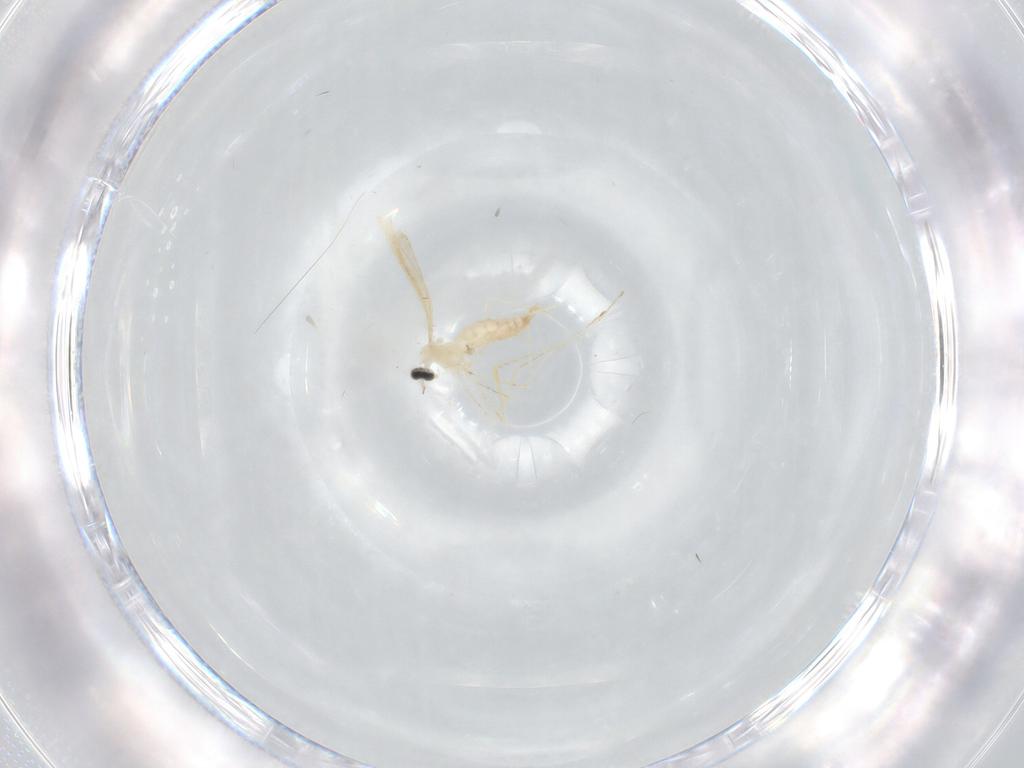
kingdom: Animalia
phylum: Arthropoda
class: Insecta
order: Diptera
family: Cecidomyiidae
